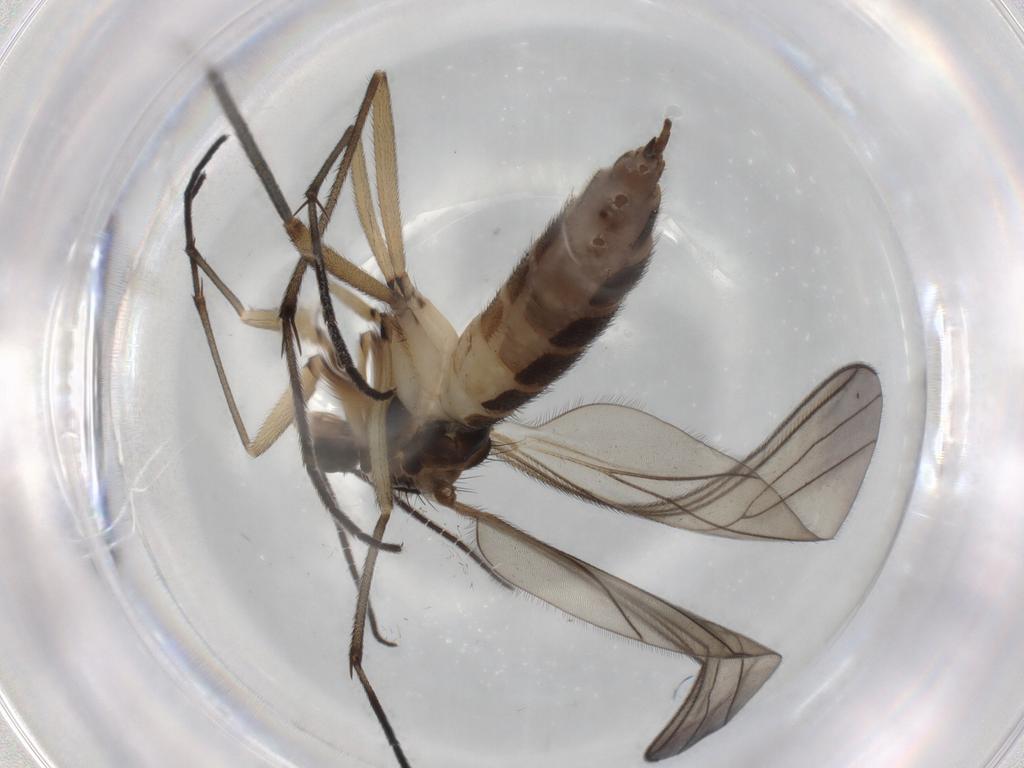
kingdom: Animalia
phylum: Arthropoda
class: Insecta
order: Diptera
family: Sciaridae
